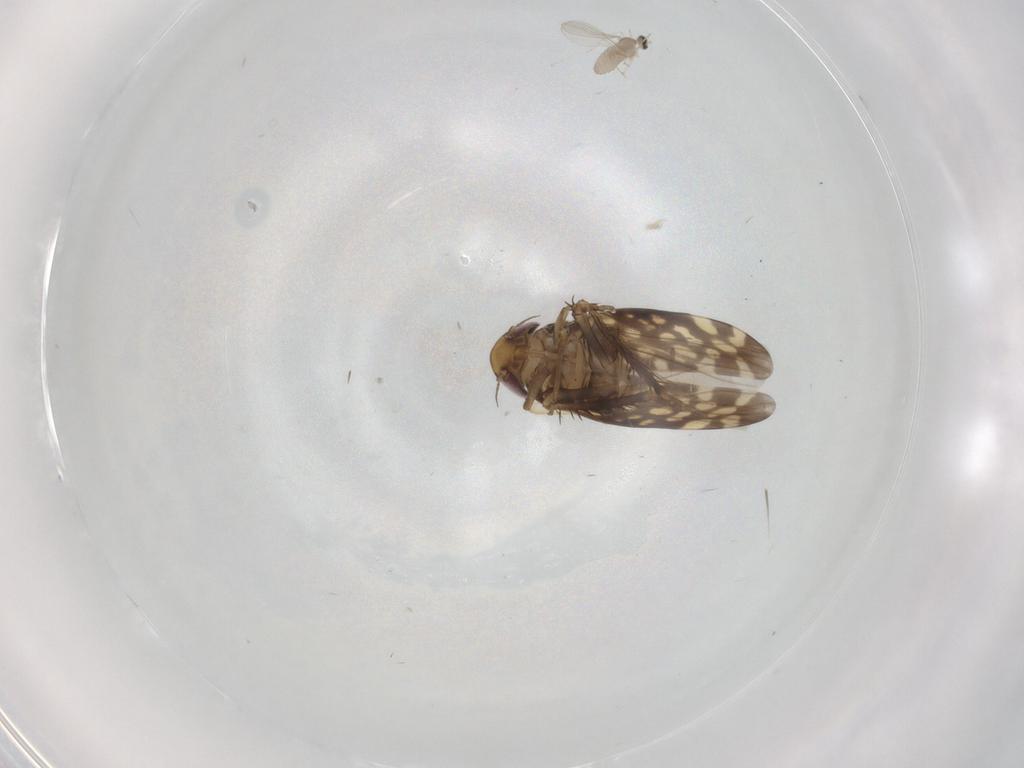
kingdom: Animalia
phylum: Arthropoda
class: Insecta
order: Hemiptera
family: Cicadellidae
